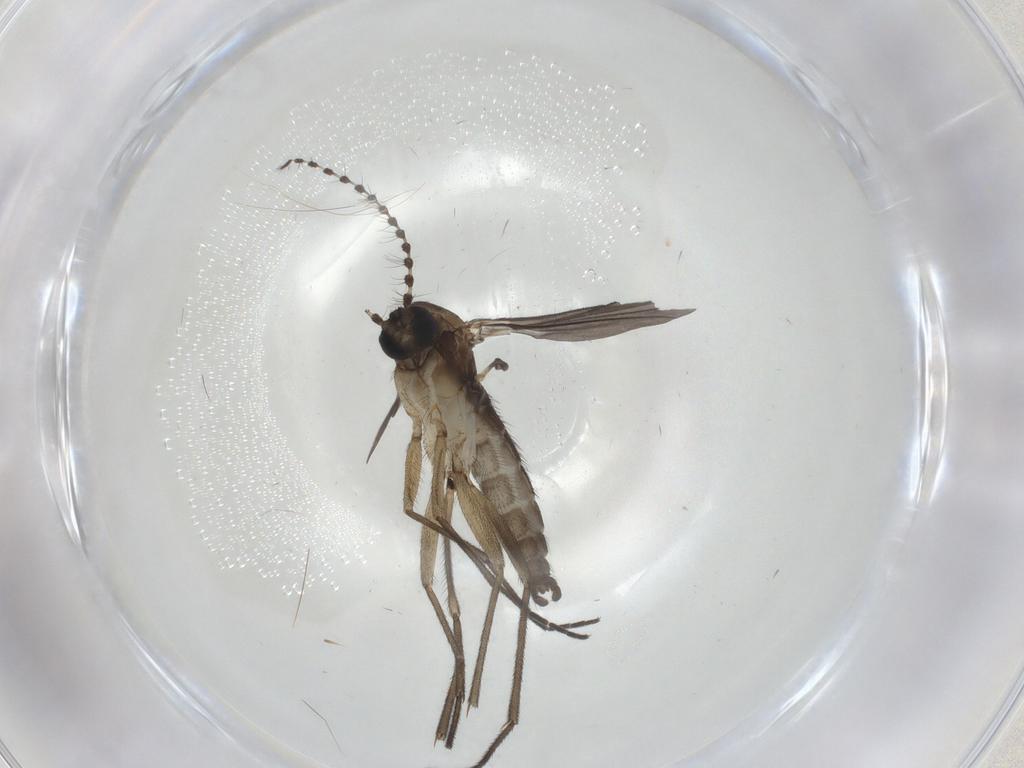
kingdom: Animalia
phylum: Arthropoda
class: Insecta
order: Diptera
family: Sciaridae
